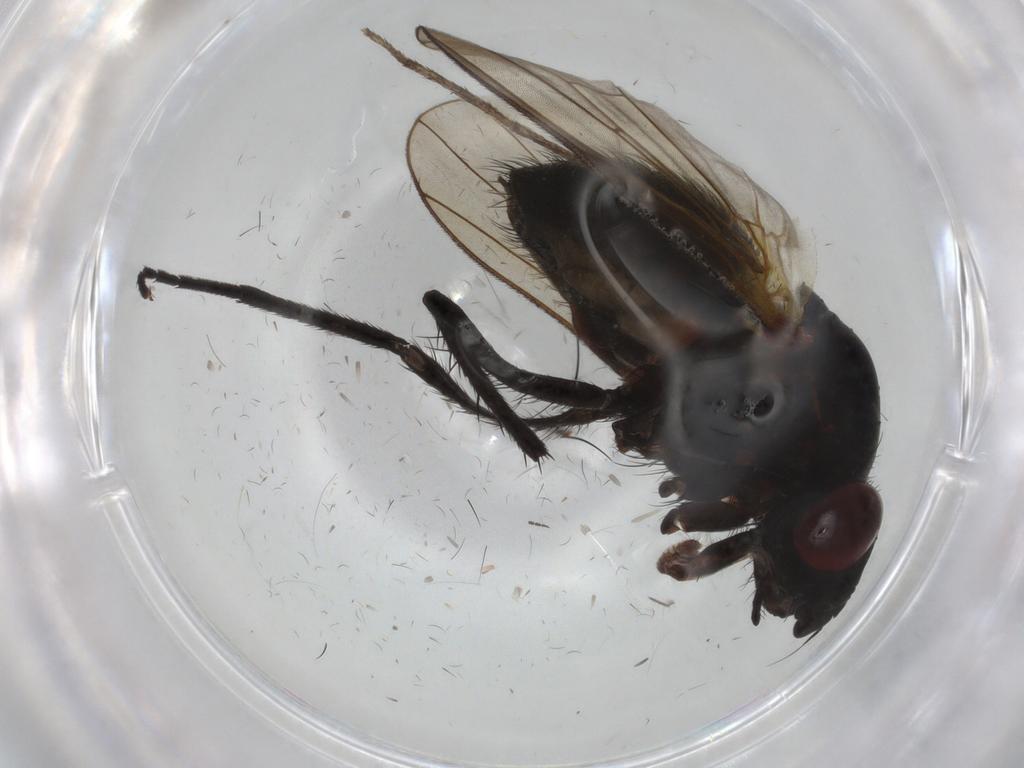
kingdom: Animalia
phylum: Arthropoda
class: Insecta
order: Diptera
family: Anthomyiidae
